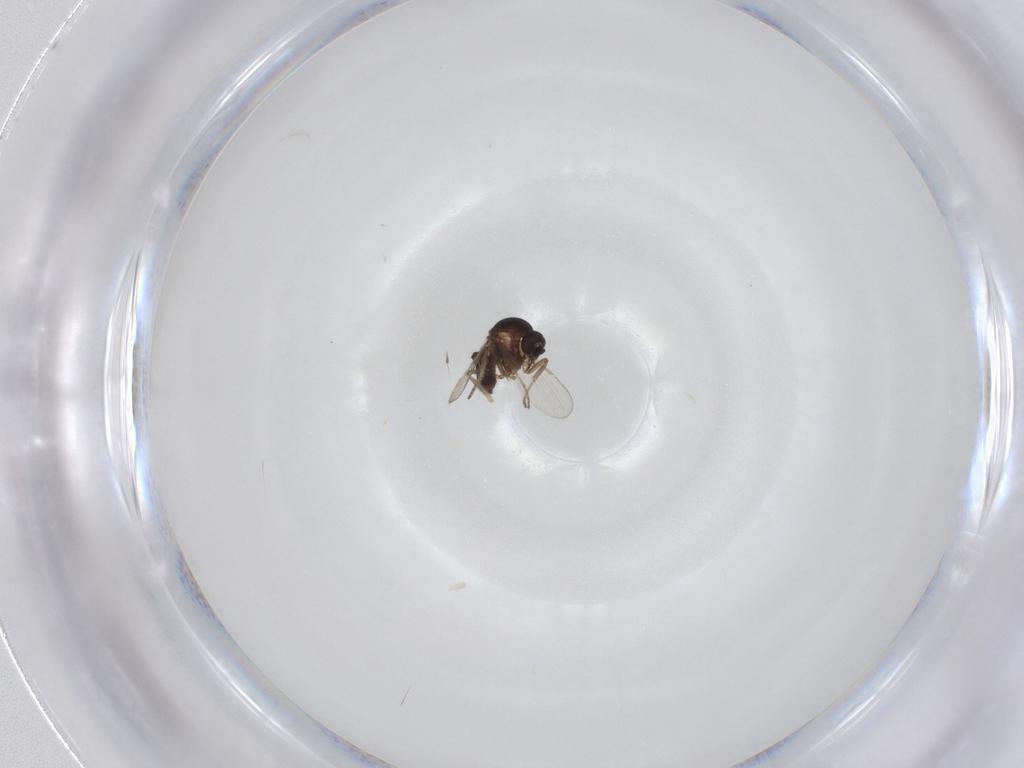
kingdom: Animalia
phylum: Arthropoda
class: Insecta
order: Diptera
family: Ceratopogonidae
